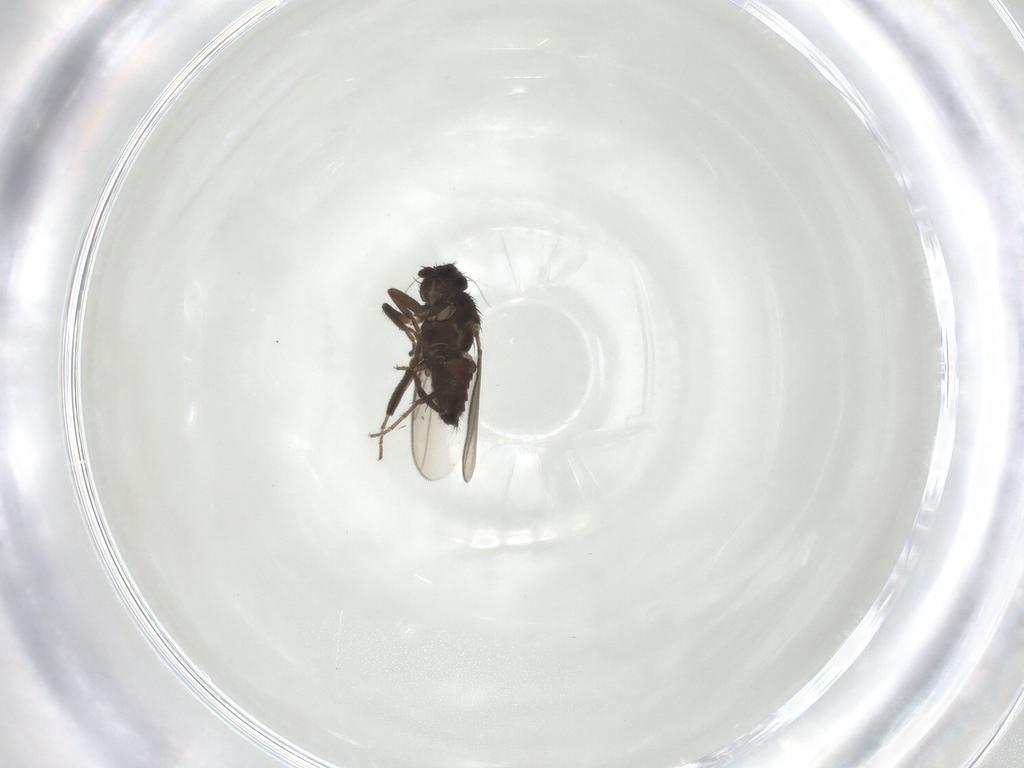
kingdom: Animalia
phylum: Arthropoda
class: Insecta
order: Diptera
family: Sphaeroceridae
